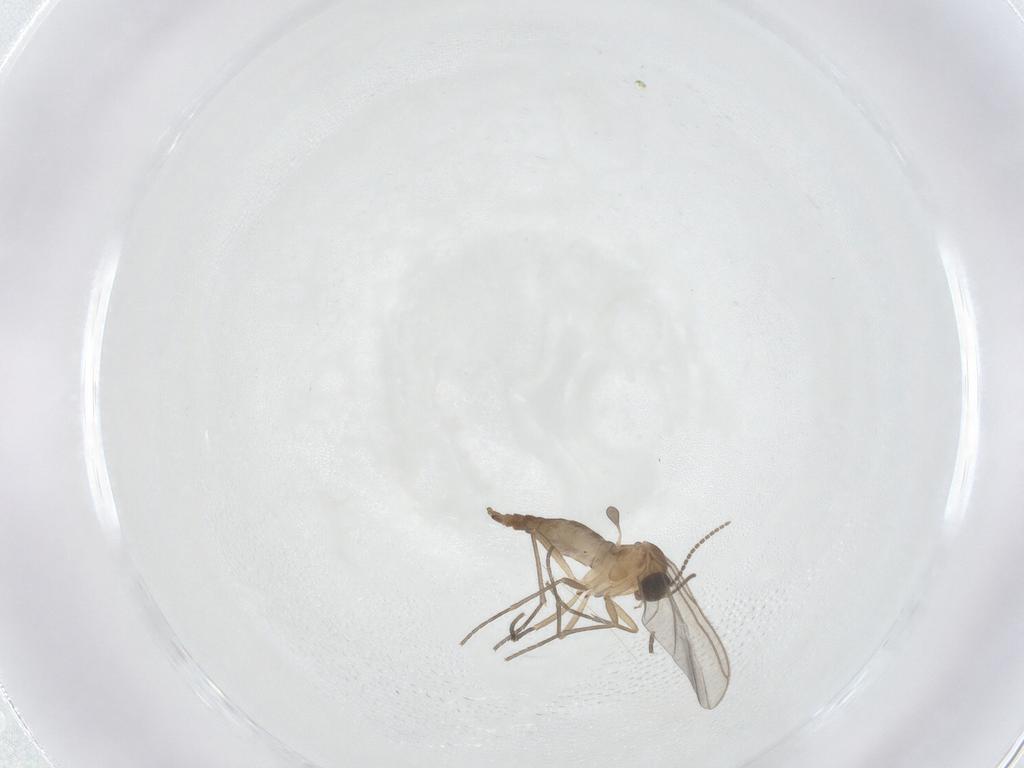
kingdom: Animalia
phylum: Arthropoda
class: Insecta
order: Diptera
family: Sciaridae
